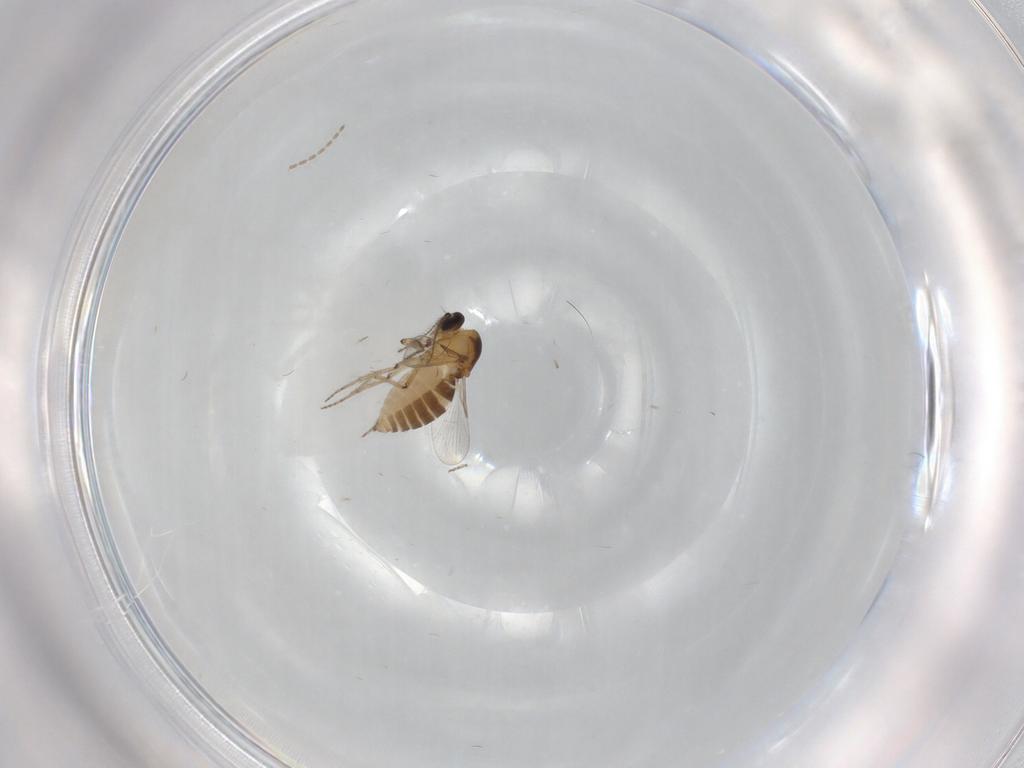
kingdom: Animalia
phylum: Arthropoda
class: Insecta
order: Diptera
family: Ceratopogonidae
